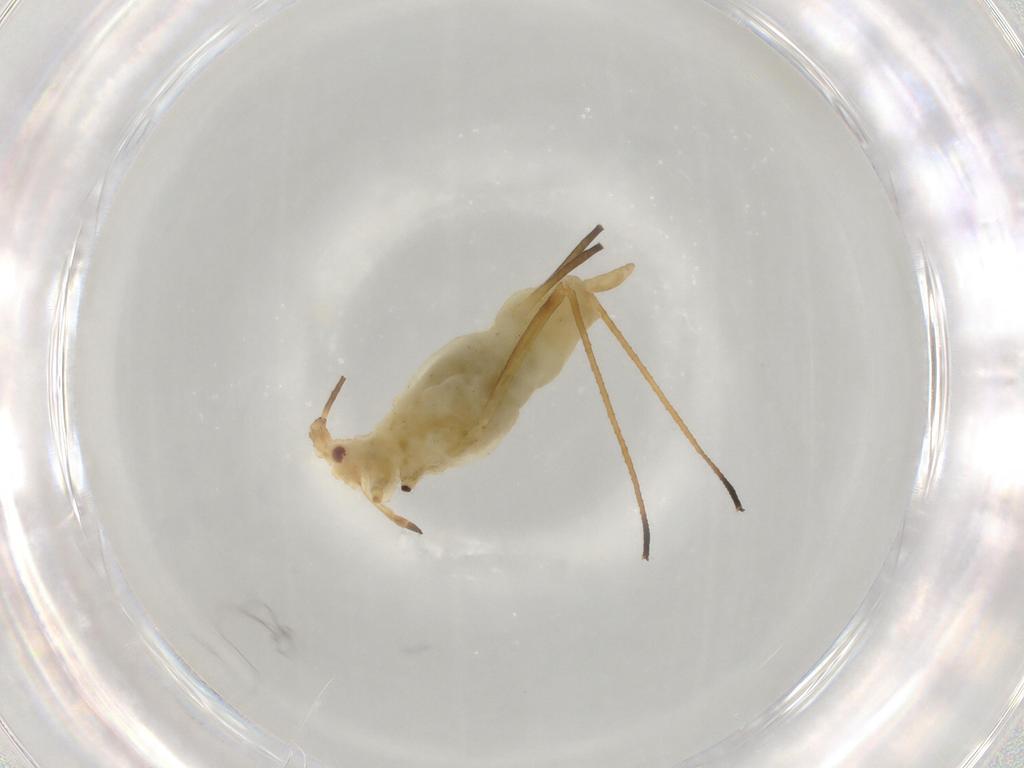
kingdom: Animalia
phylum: Arthropoda
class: Insecta
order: Hemiptera
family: Aphididae
